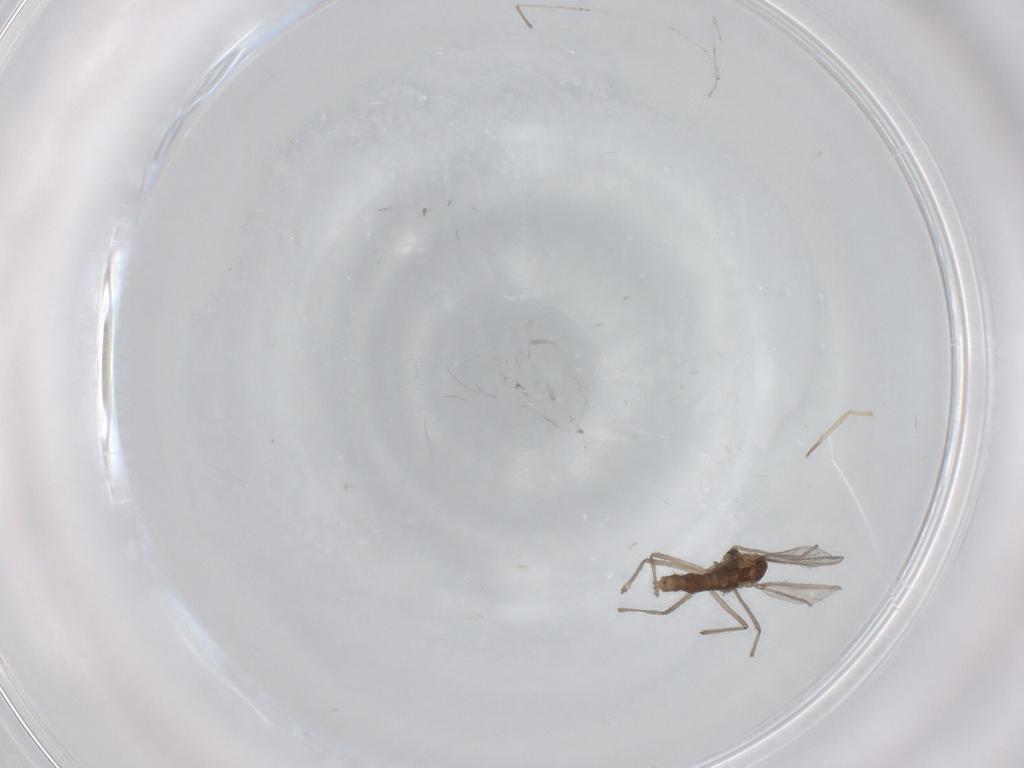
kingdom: Animalia
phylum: Arthropoda
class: Insecta
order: Diptera
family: Chironomidae
